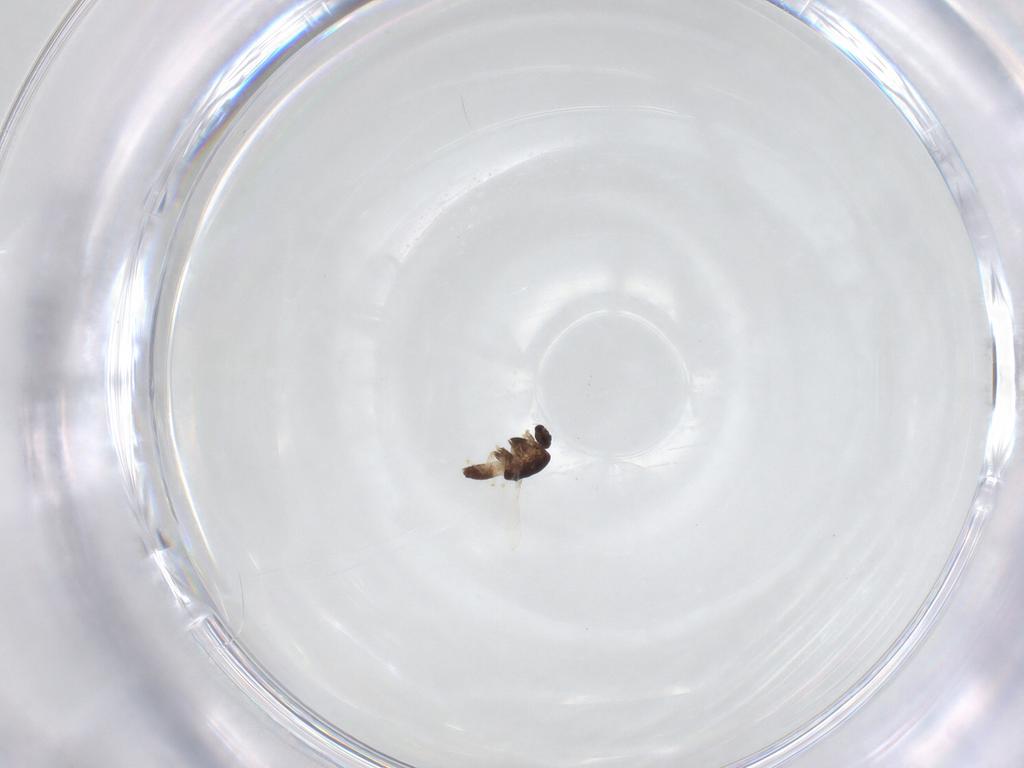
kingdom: Animalia
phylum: Arthropoda
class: Insecta
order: Diptera
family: Chironomidae
